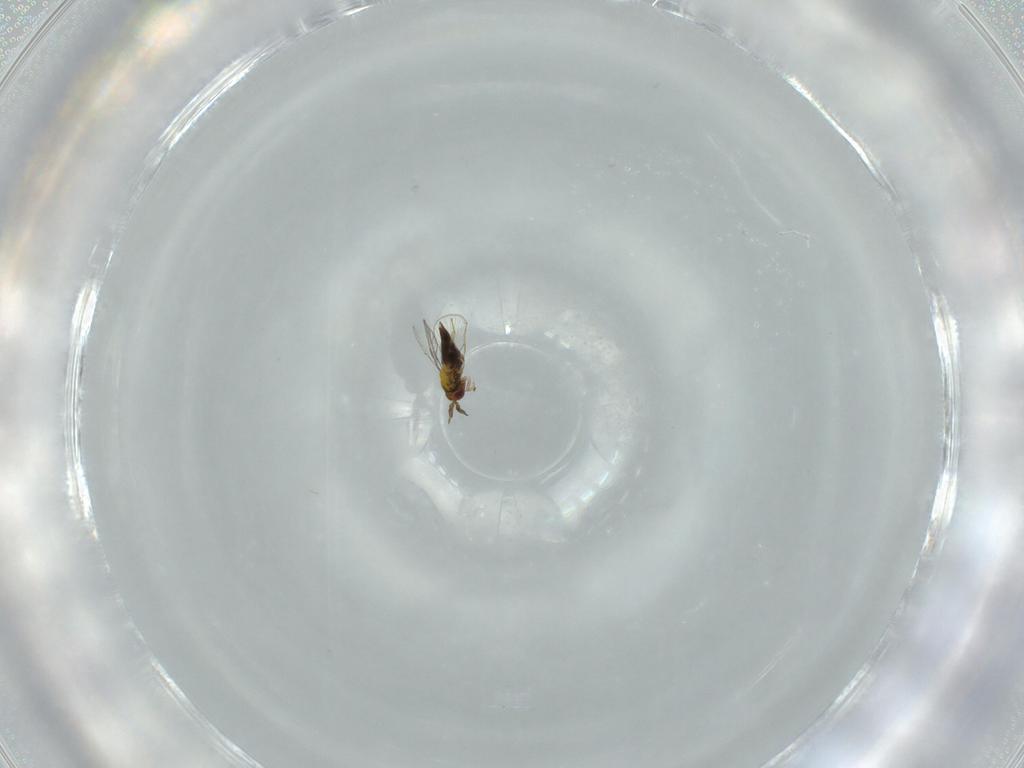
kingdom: Animalia
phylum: Arthropoda
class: Insecta
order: Hymenoptera
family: Trichogrammatidae
